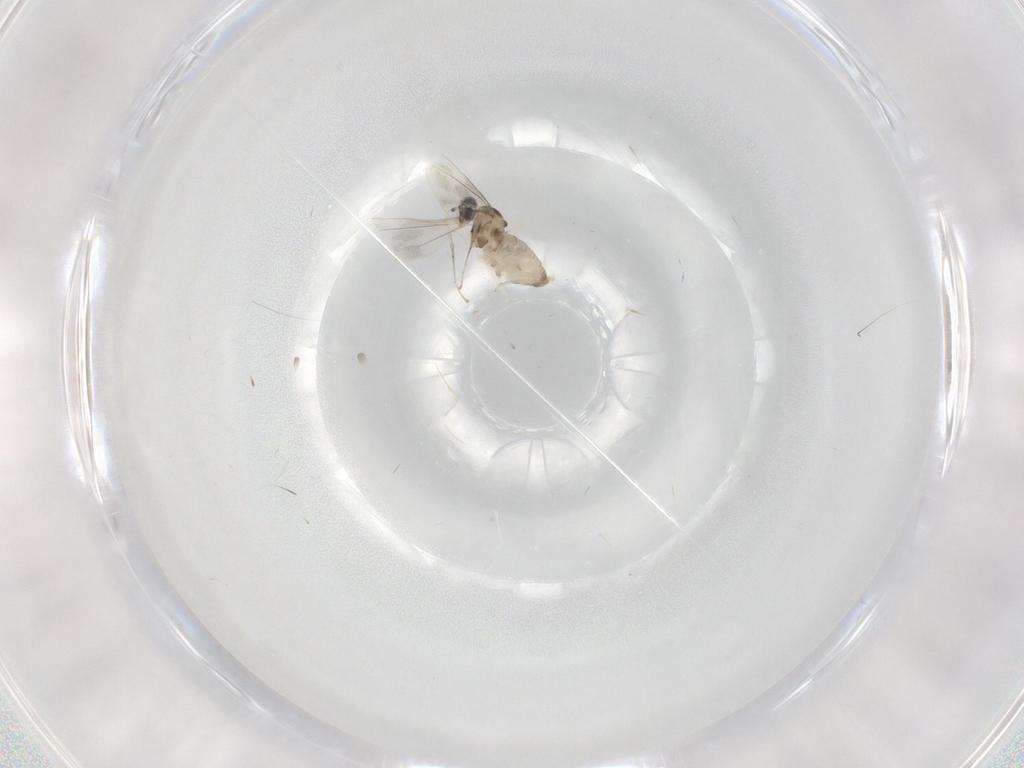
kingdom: Animalia
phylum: Arthropoda
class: Insecta
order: Diptera
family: Cecidomyiidae
